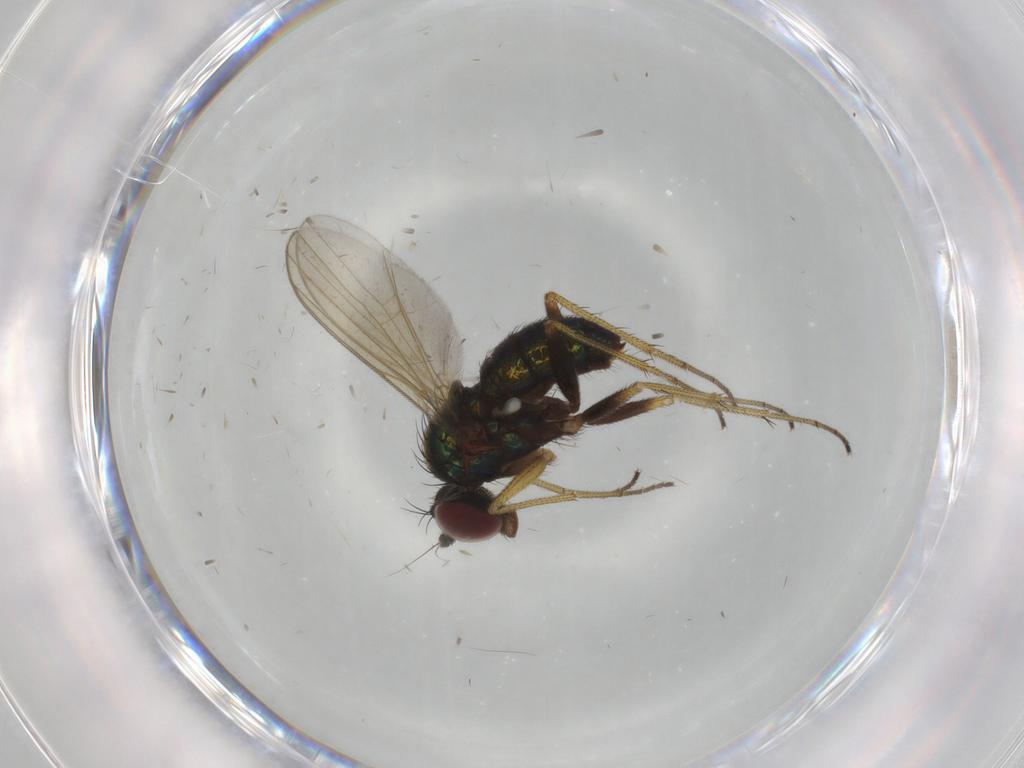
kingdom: Animalia
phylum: Arthropoda
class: Insecta
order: Diptera
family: Dolichopodidae
